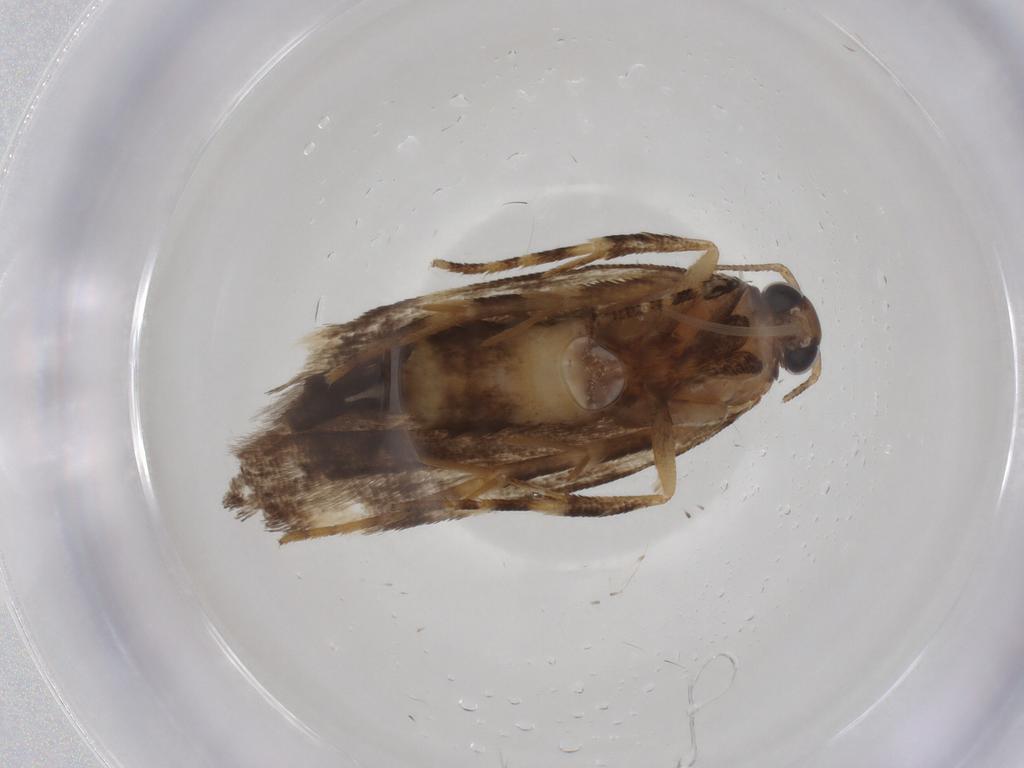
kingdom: Animalia
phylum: Arthropoda
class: Insecta
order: Lepidoptera
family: Gelechiidae
